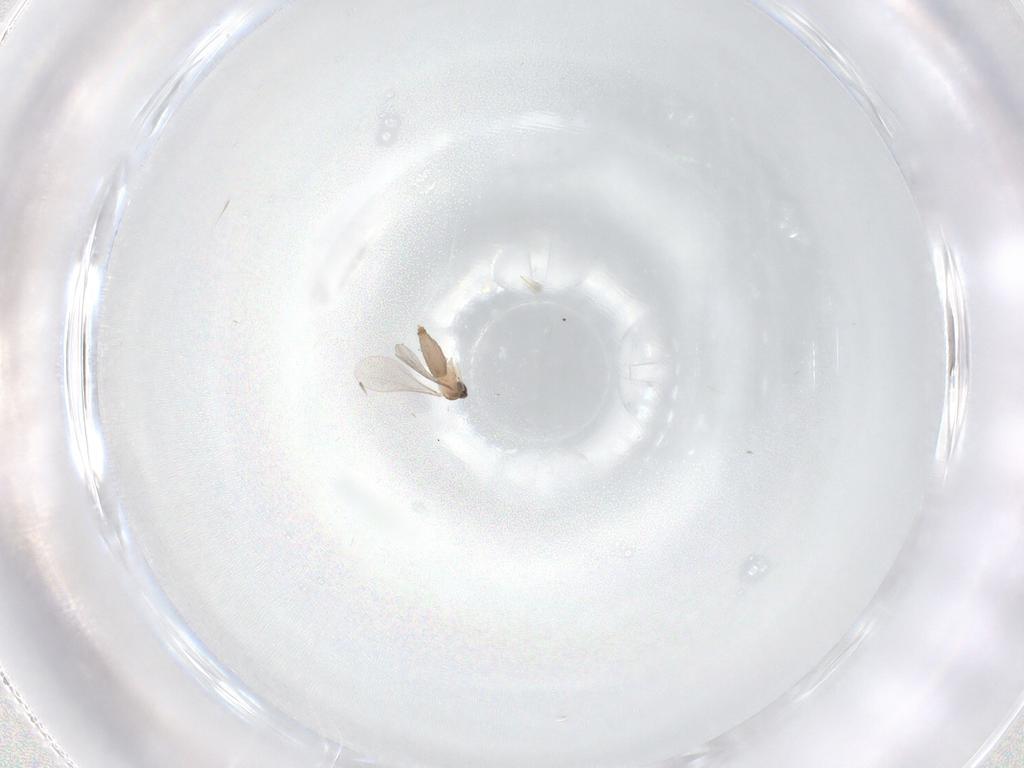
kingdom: Animalia
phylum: Arthropoda
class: Insecta
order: Diptera
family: Cecidomyiidae
